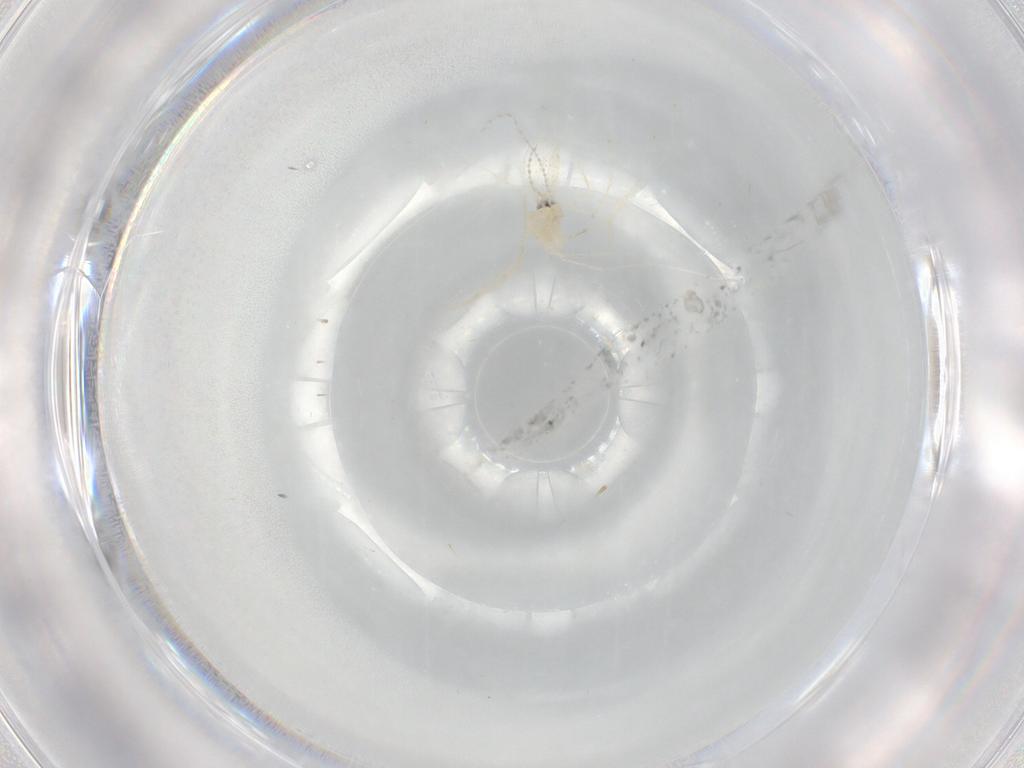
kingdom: Animalia
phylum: Arthropoda
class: Insecta
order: Diptera
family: Cecidomyiidae
